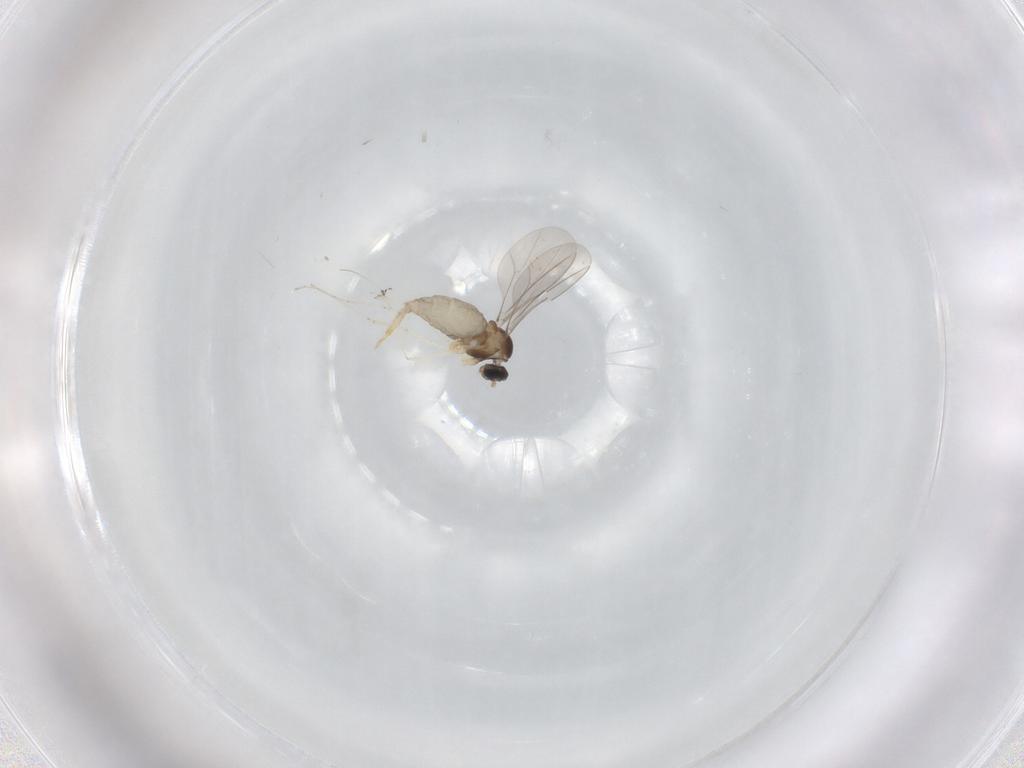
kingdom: Animalia
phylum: Arthropoda
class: Insecta
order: Diptera
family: Cecidomyiidae
